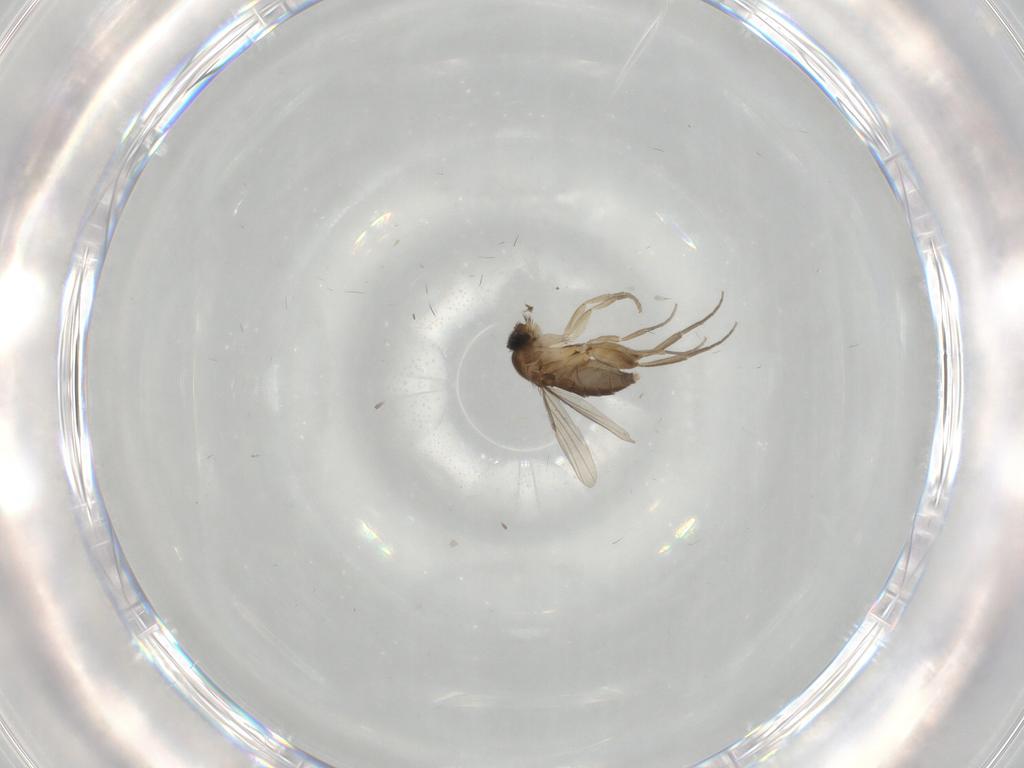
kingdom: Animalia
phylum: Arthropoda
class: Insecta
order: Diptera
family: Phoridae
